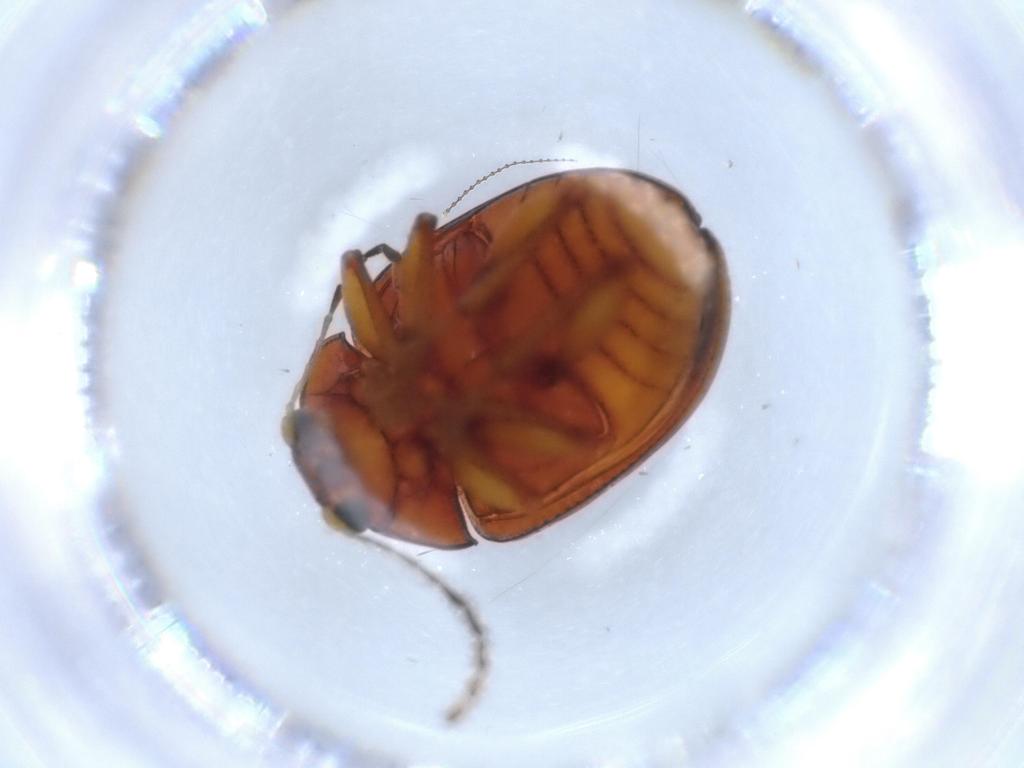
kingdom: Animalia
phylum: Arthropoda
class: Insecta
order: Coleoptera
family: Chrysomelidae
